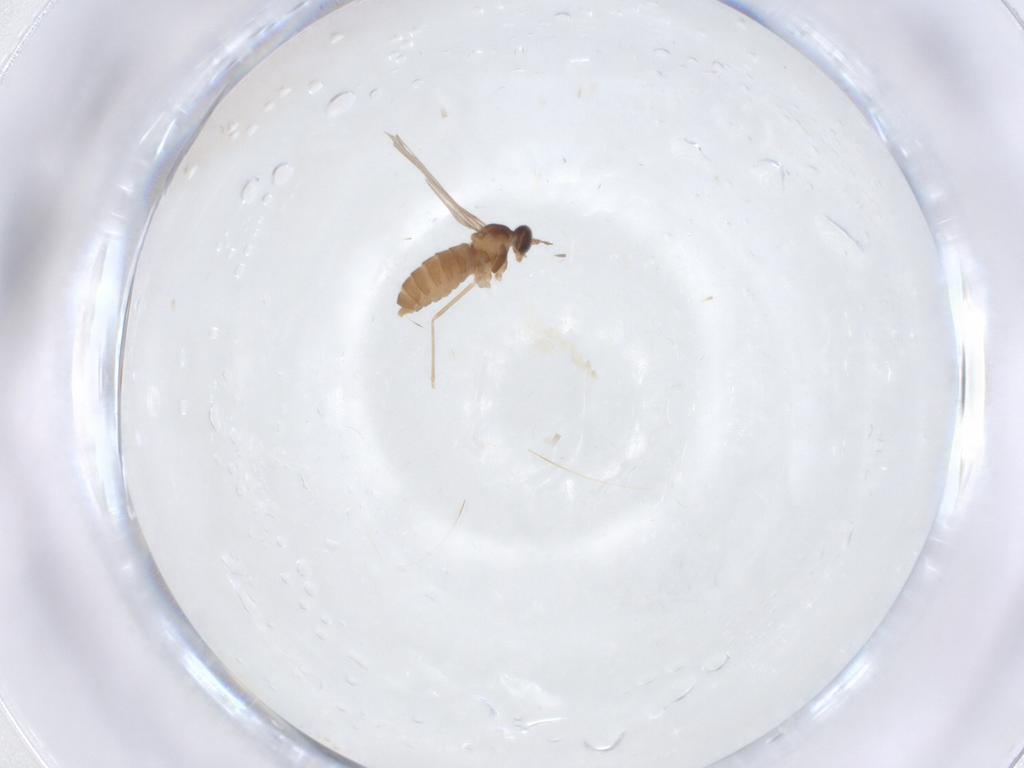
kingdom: Animalia
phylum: Arthropoda
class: Insecta
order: Diptera
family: Cecidomyiidae
